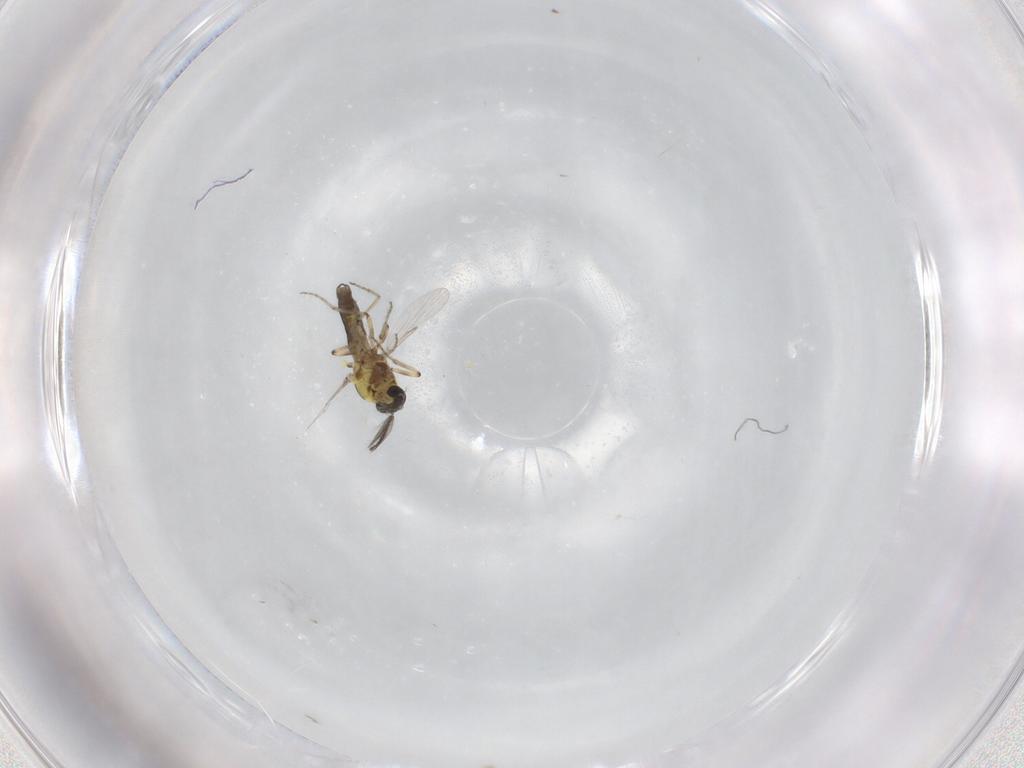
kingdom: Animalia
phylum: Arthropoda
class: Insecta
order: Diptera
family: Ceratopogonidae
